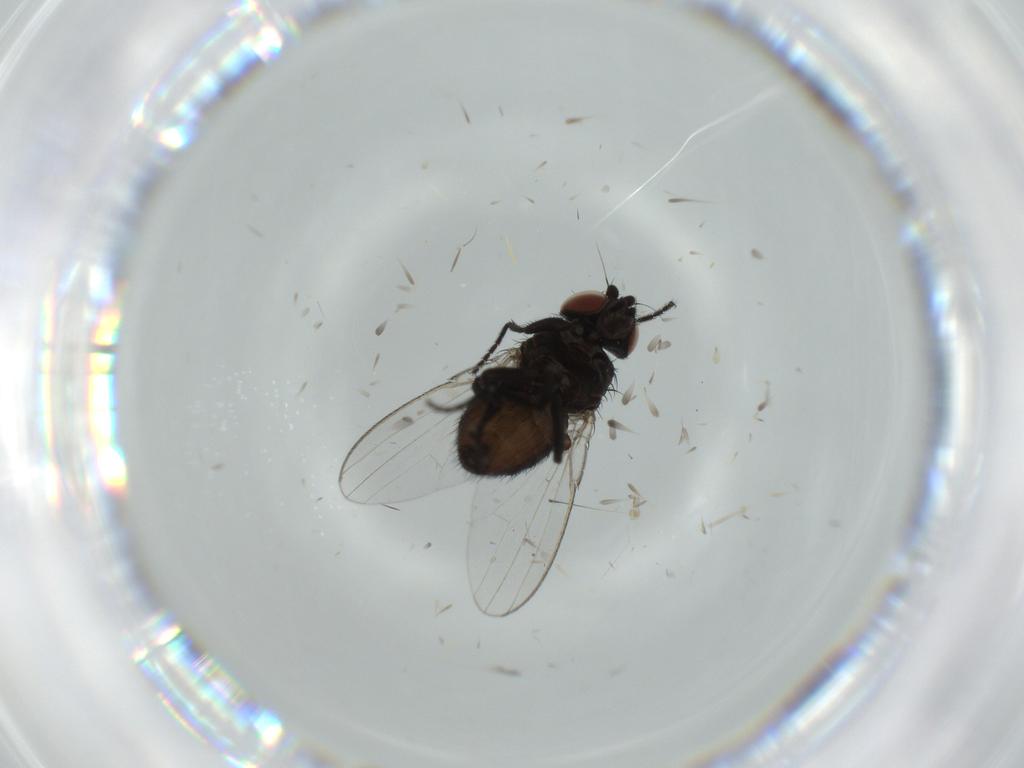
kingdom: Animalia
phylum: Arthropoda
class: Insecta
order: Diptera
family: Milichiidae
